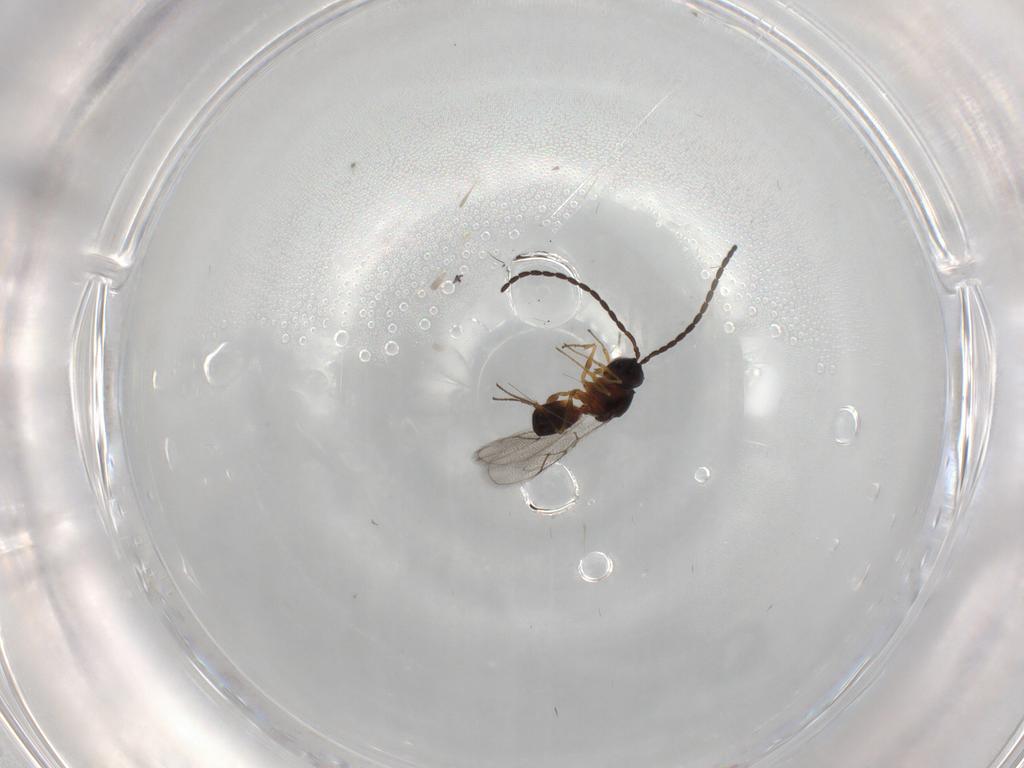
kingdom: Animalia
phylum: Arthropoda
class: Insecta
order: Hymenoptera
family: Figitidae
